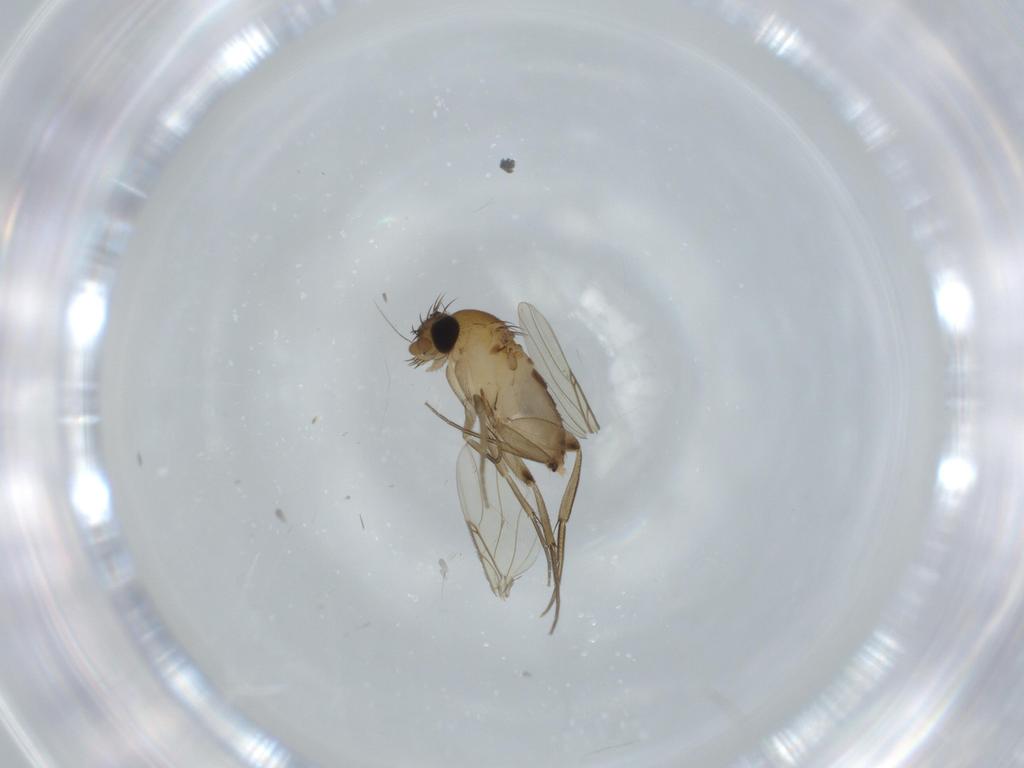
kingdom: Animalia
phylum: Arthropoda
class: Insecta
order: Diptera
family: Phoridae
